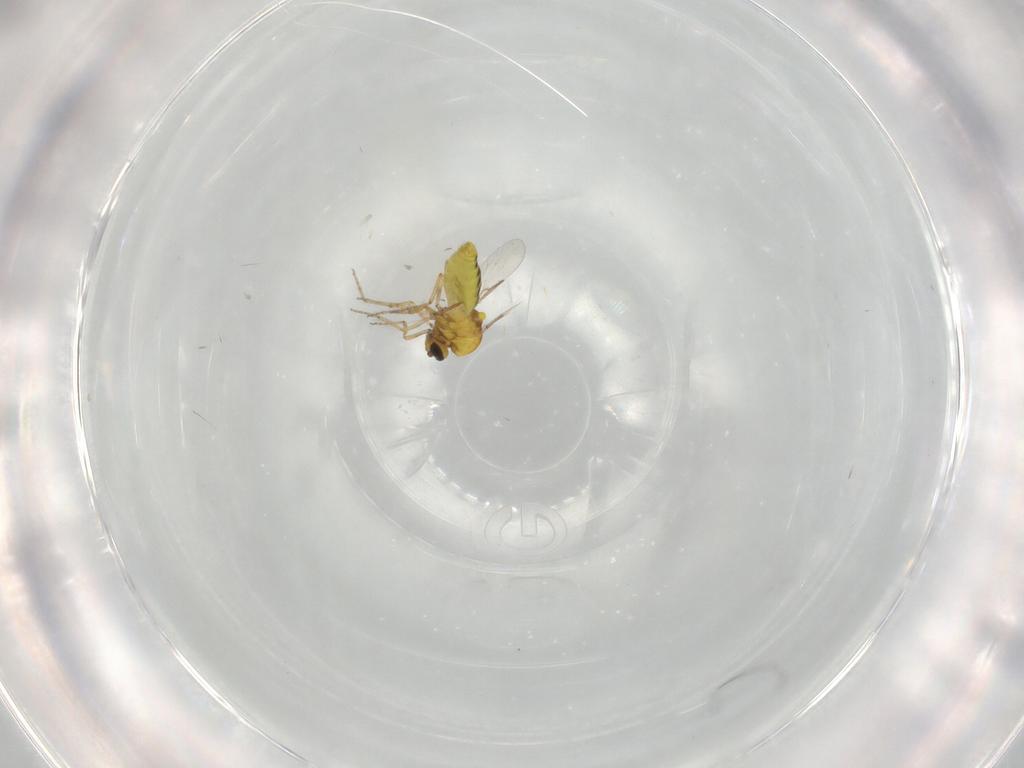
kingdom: Animalia
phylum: Arthropoda
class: Insecta
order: Diptera
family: Ceratopogonidae
